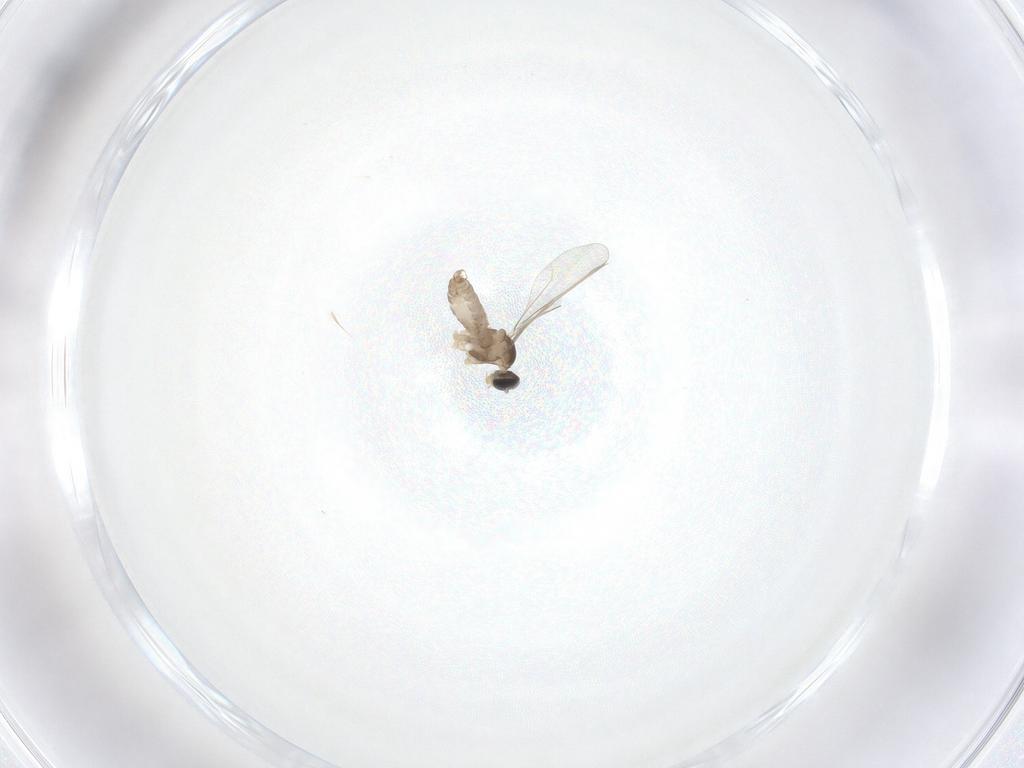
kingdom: Animalia
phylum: Arthropoda
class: Insecta
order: Diptera
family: Cecidomyiidae
